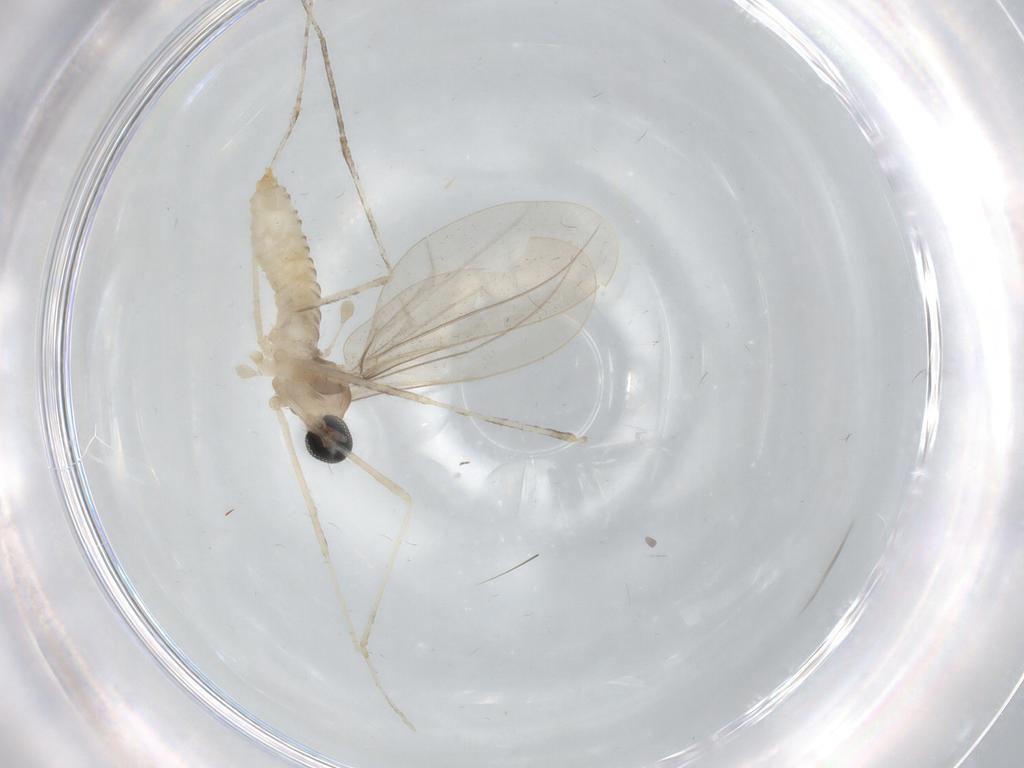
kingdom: Animalia
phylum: Arthropoda
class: Insecta
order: Diptera
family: Cecidomyiidae
